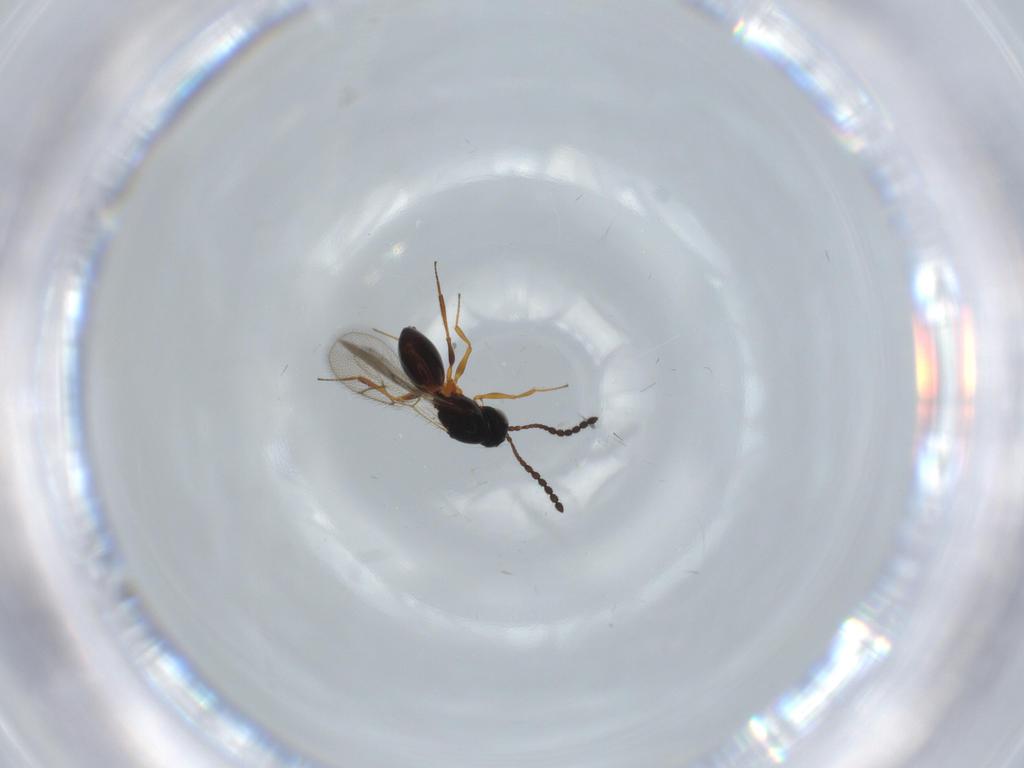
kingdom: Animalia
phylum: Arthropoda
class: Insecta
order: Hymenoptera
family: Figitidae
